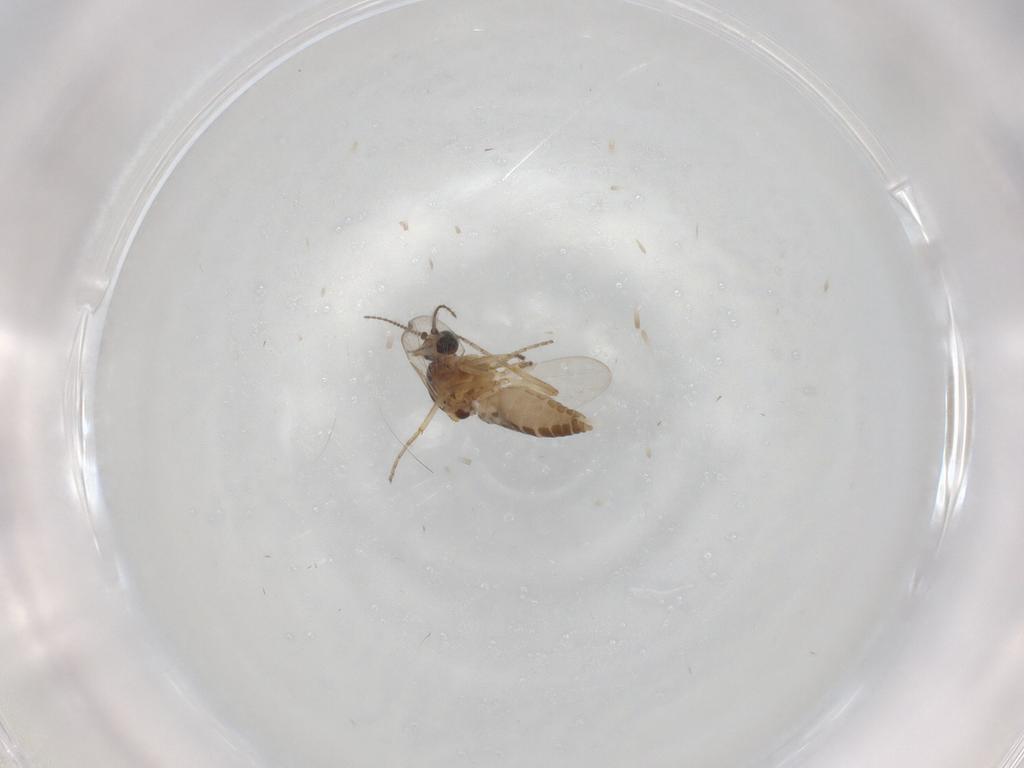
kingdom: Animalia
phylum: Arthropoda
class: Insecta
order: Diptera
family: Ceratopogonidae
